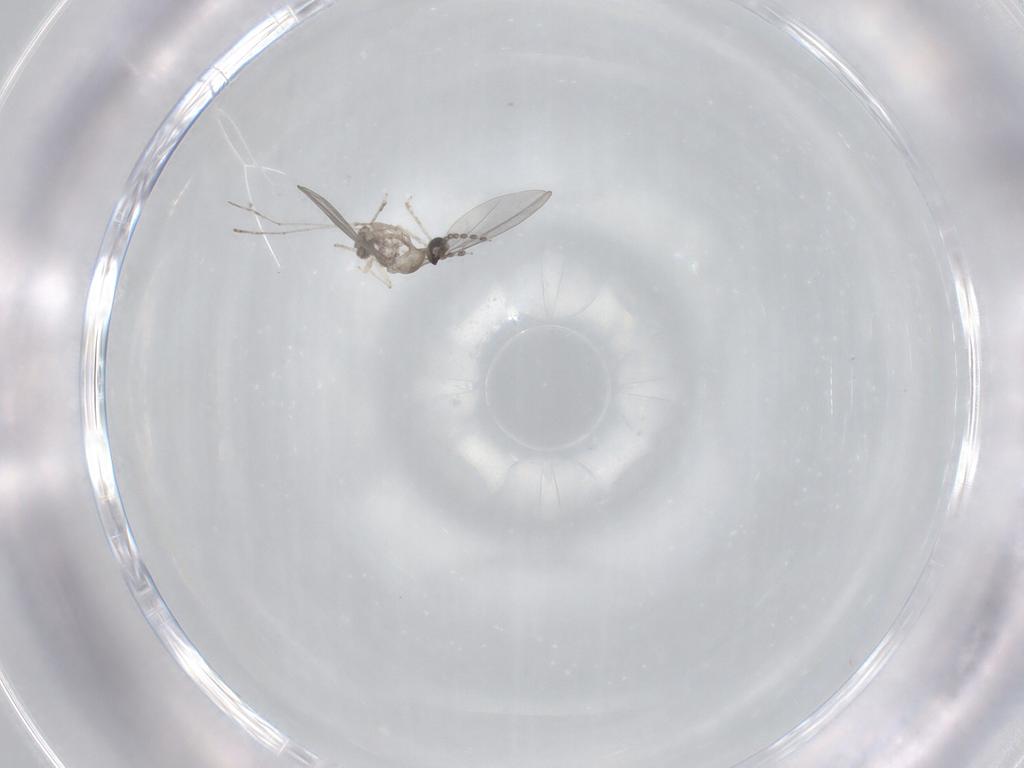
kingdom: Animalia
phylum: Arthropoda
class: Insecta
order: Diptera
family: Cecidomyiidae
